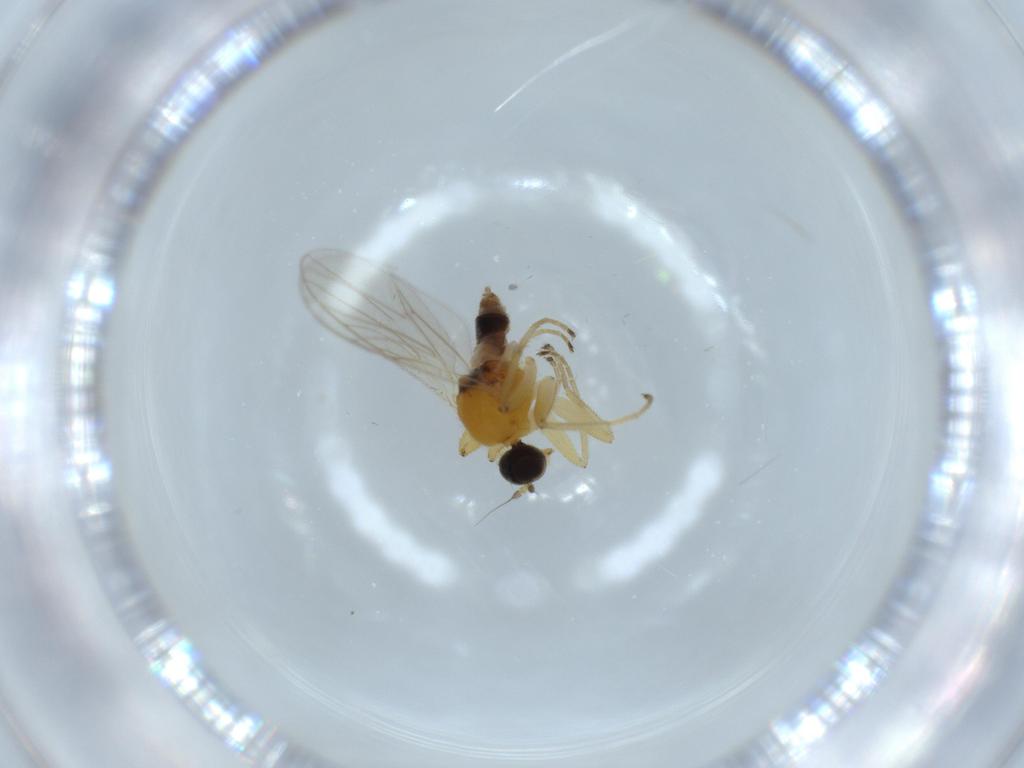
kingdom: Animalia
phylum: Arthropoda
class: Insecta
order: Diptera
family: Hybotidae
